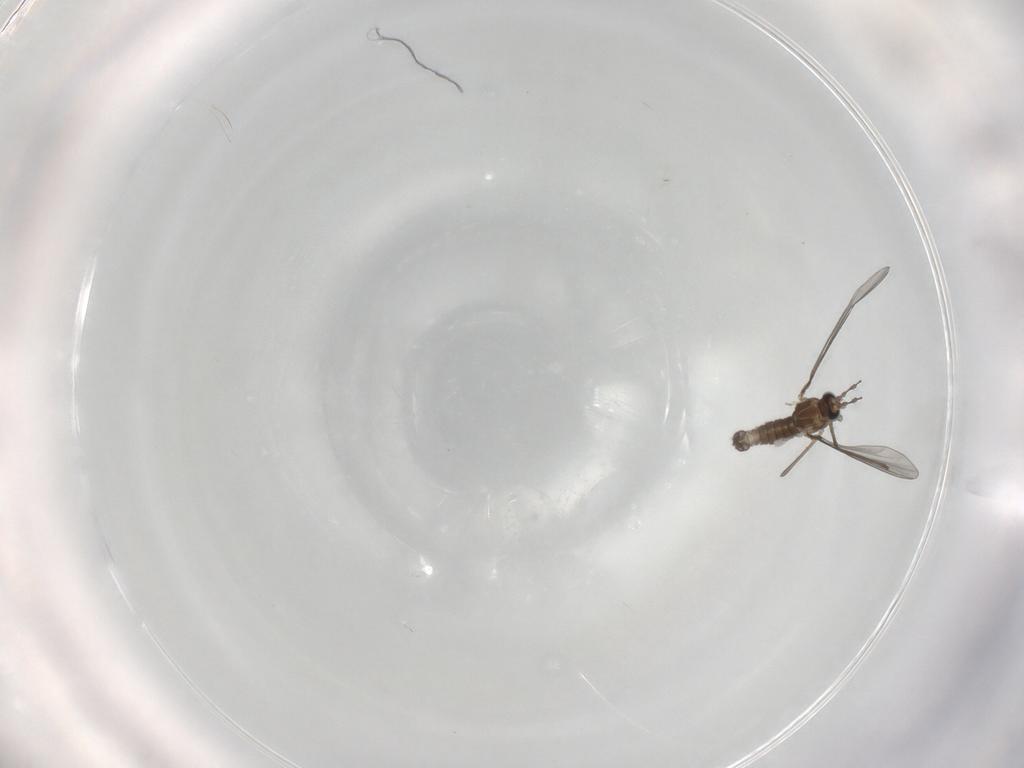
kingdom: Animalia
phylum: Arthropoda
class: Insecta
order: Diptera
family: Cecidomyiidae
